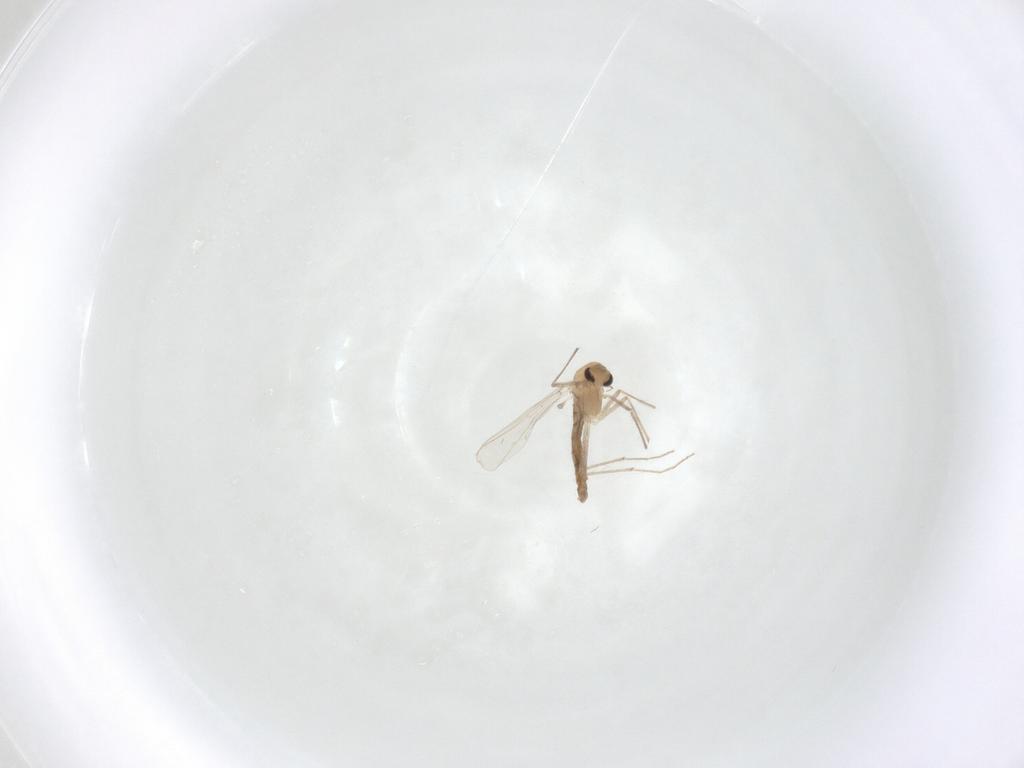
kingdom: Animalia
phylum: Arthropoda
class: Insecta
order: Diptera
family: Chironomidae
